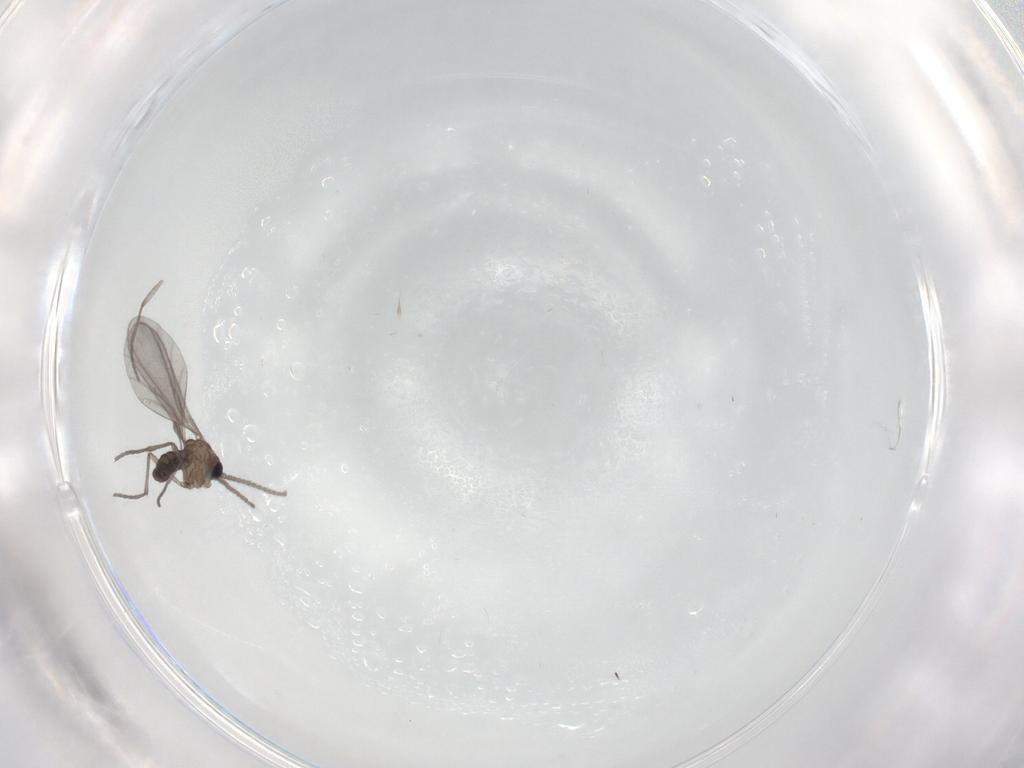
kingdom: Animalia
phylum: Arthropoda
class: Insecta
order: Diptera
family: Sciaridae
